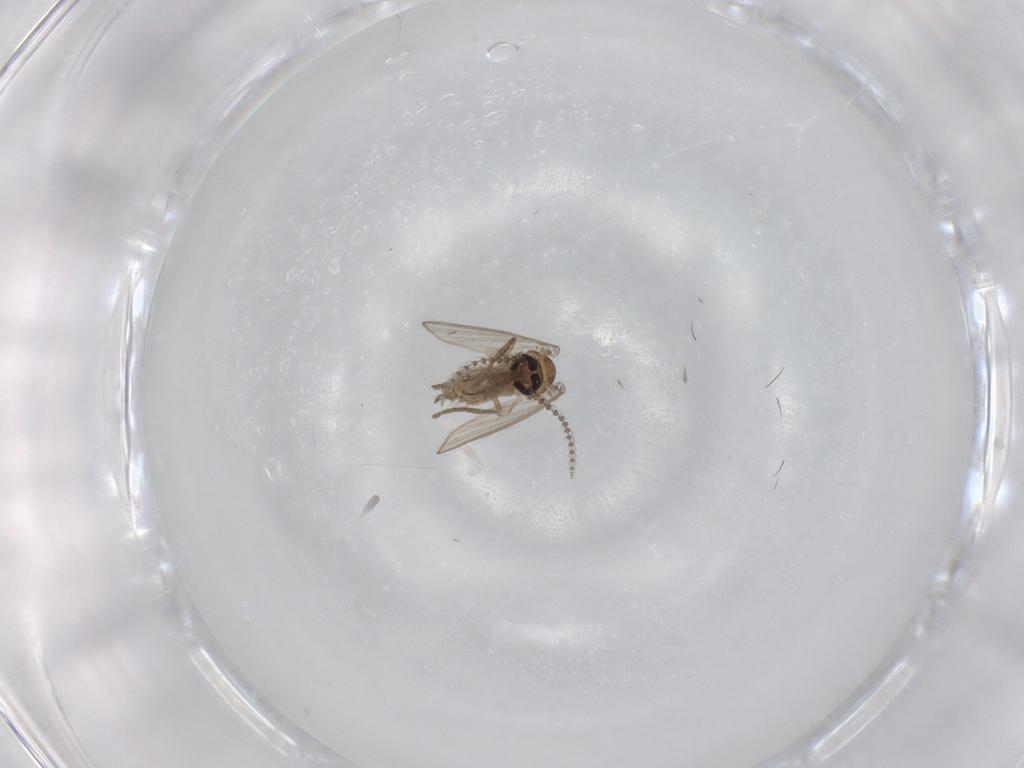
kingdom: Animalia
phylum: Arthropoda
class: Insecta
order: Diptera
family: Psychodidae
